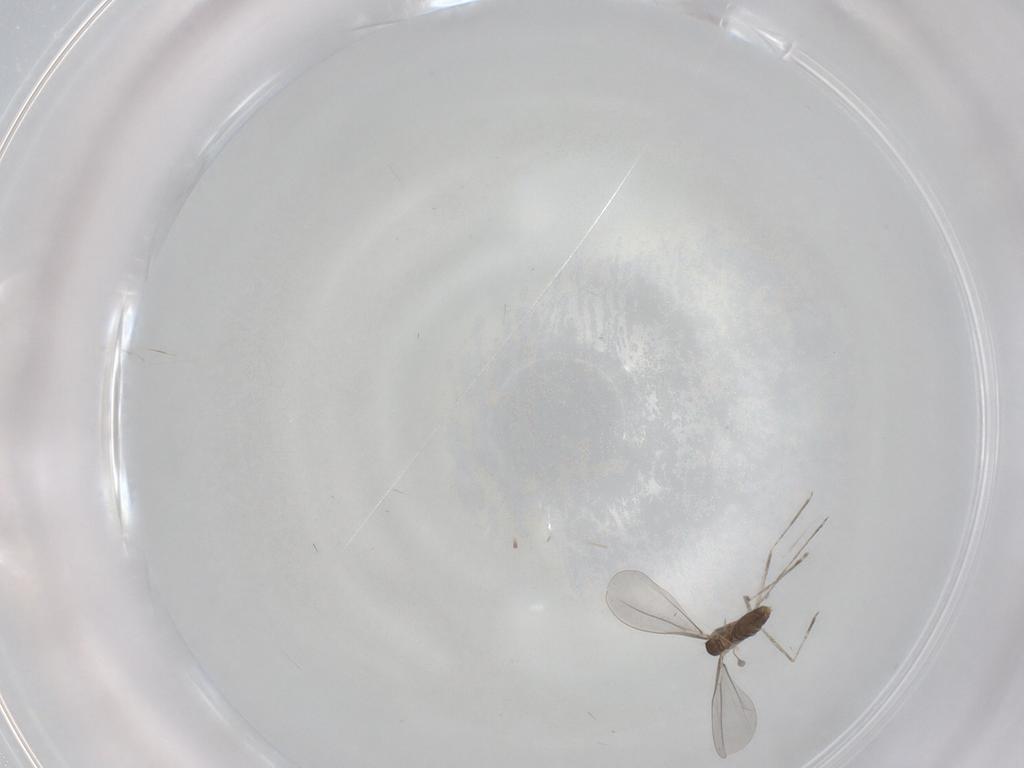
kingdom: Animalia
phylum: Arthropoda
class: Insecta
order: Diptera
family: Cecidomyiidae
